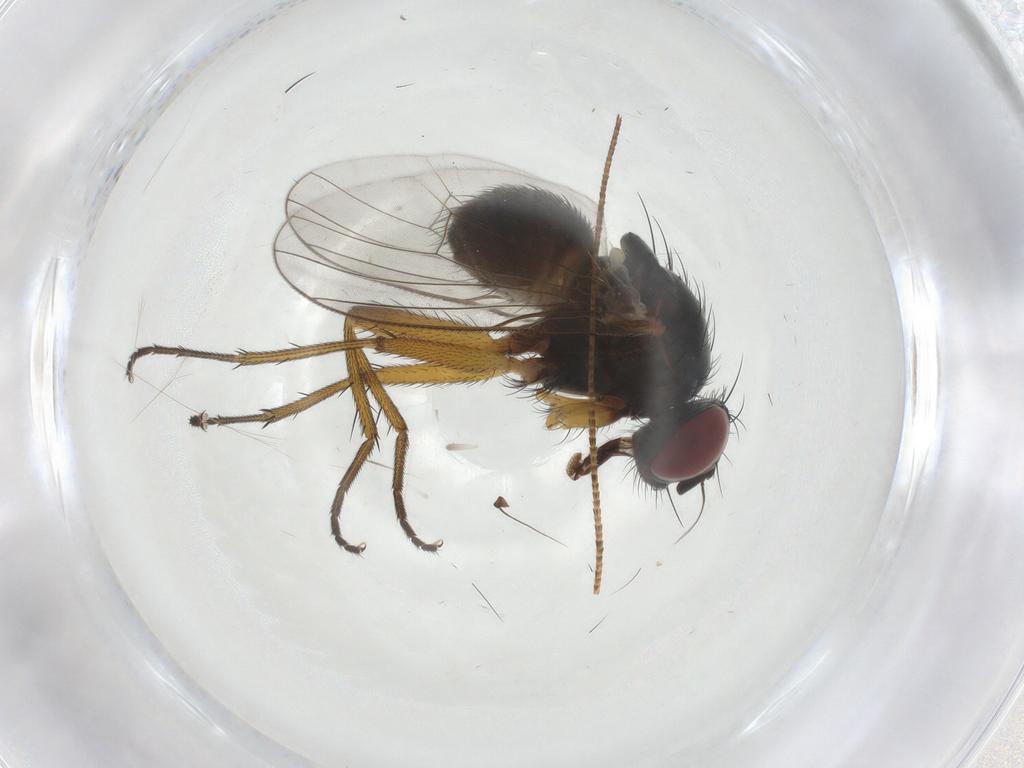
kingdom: Animalia
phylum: Arthropoda
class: Insecta
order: Diptera
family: Muscidae
